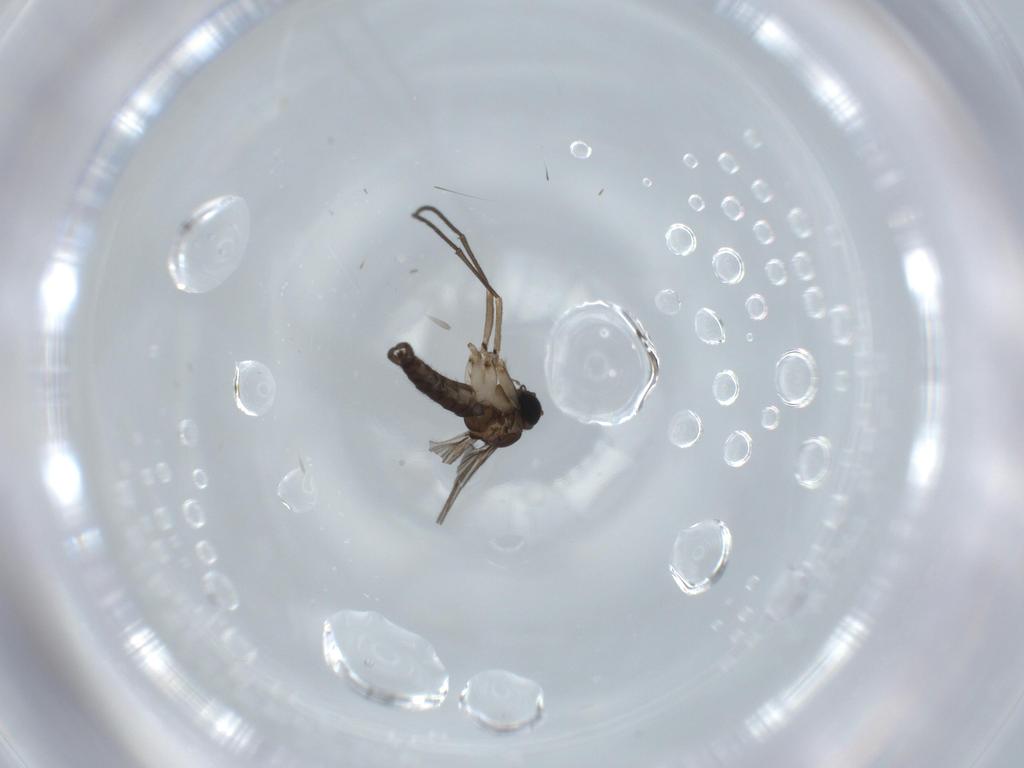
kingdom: Animalia
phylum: Arthropoda
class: Insecta
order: Diptera
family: Sciaridae
